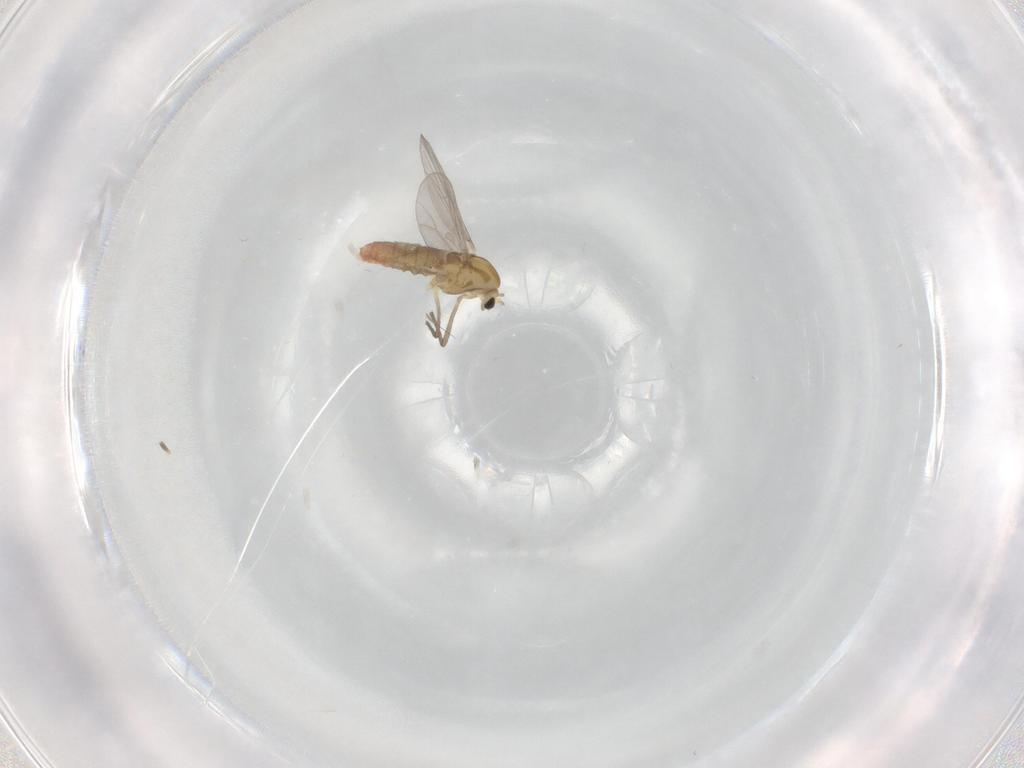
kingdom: Animalia
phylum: Arthropoda
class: Insecta
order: Diptera
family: Chironomidae
